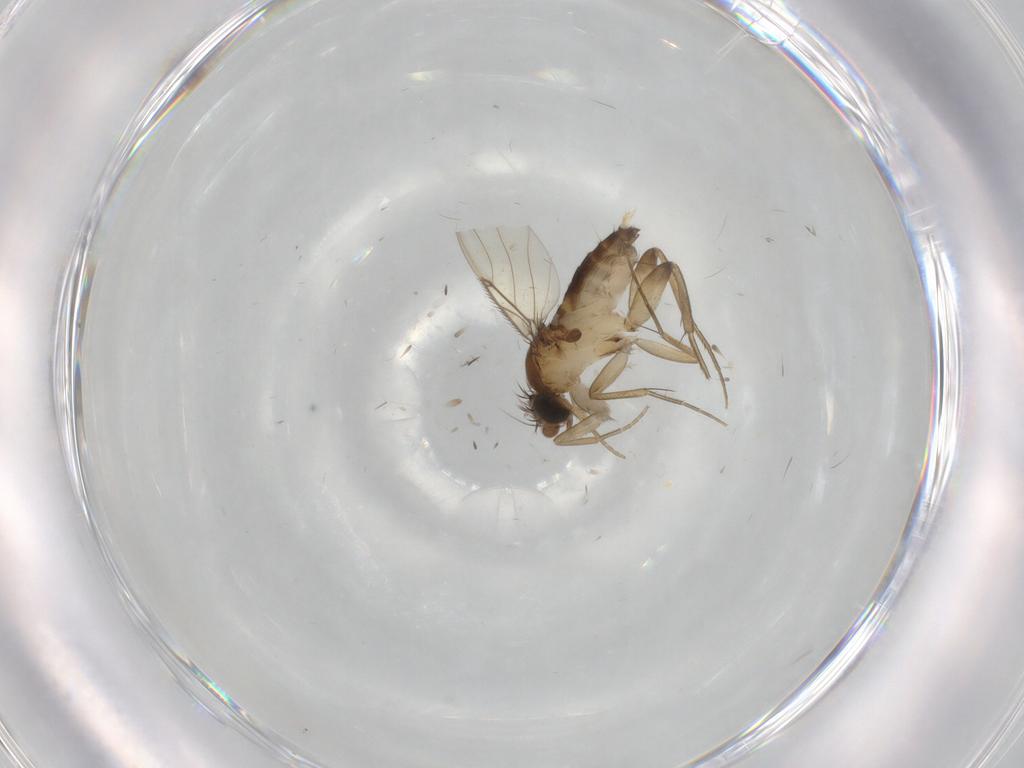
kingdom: Animalia
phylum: Arthropoda
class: Insecta
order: Diptera
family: Phoridae
